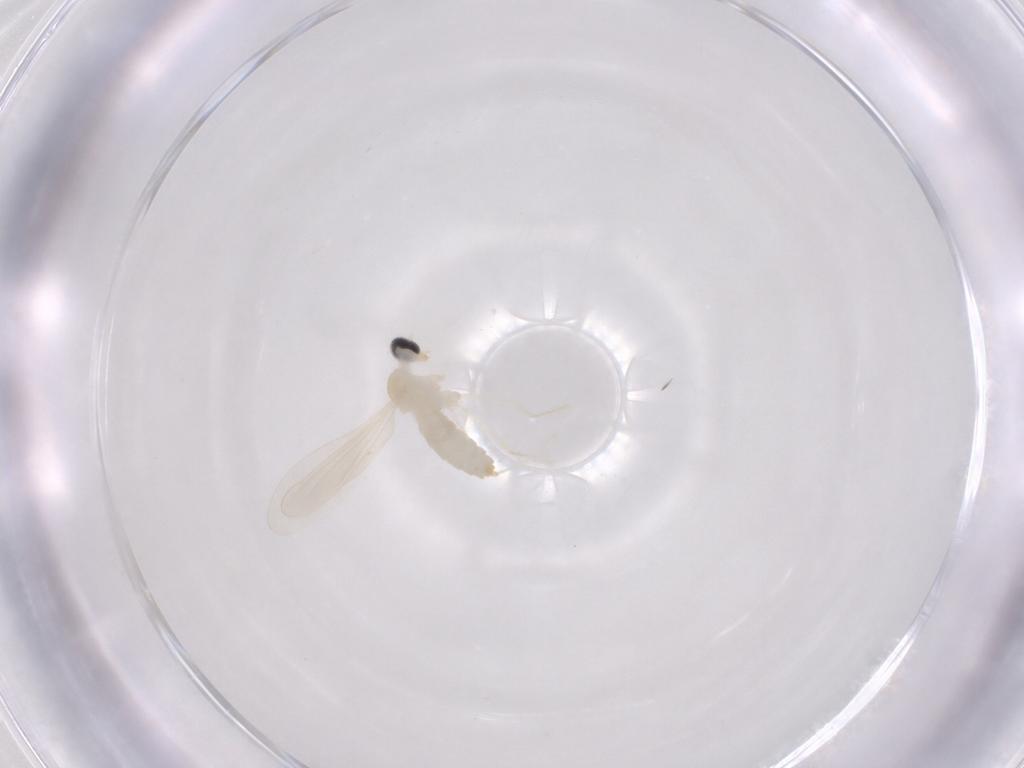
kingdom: Animalia
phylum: Arthropoda
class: Insecta
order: Diptera
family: Cecidomyiidae
